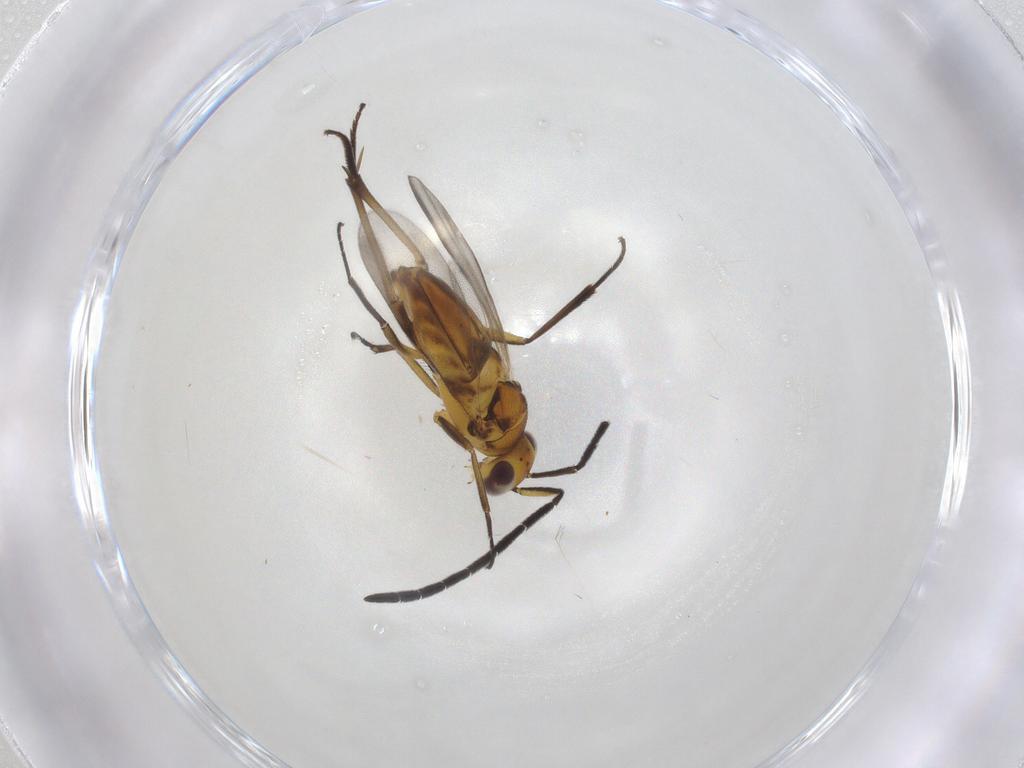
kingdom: Animalia
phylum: Arthropoda
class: Insecta
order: Hymenoptera
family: Mymaridae
